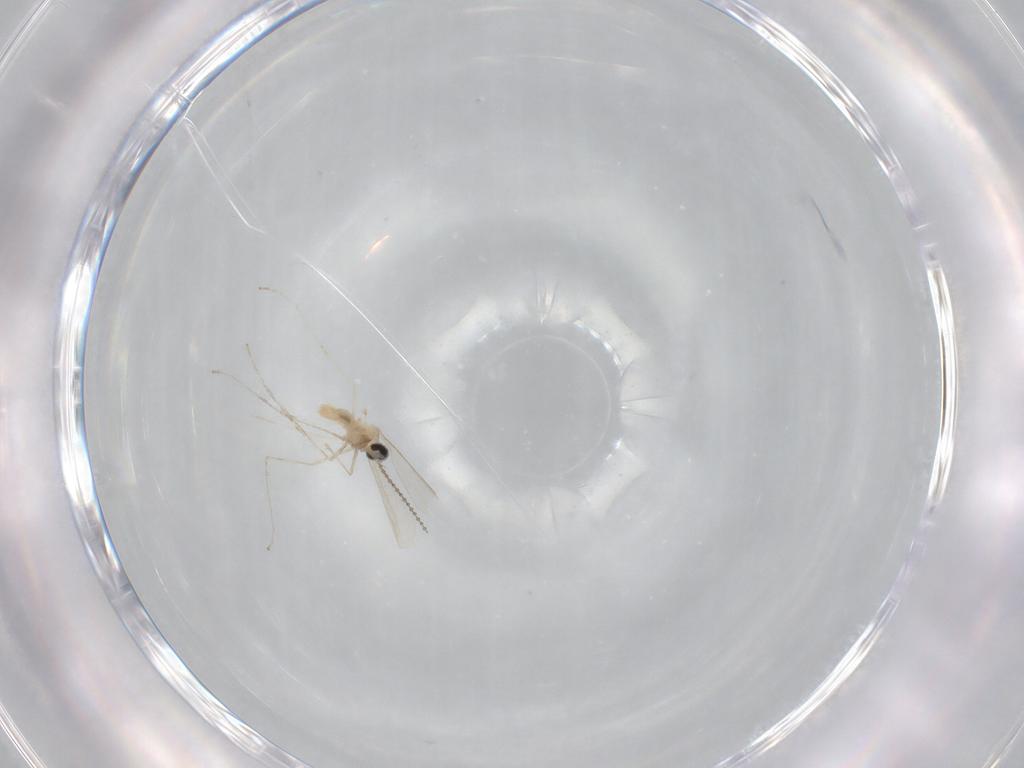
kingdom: Animalia
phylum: Arthropoda
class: Insecta
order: Diptera
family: Cecidomyiidae
